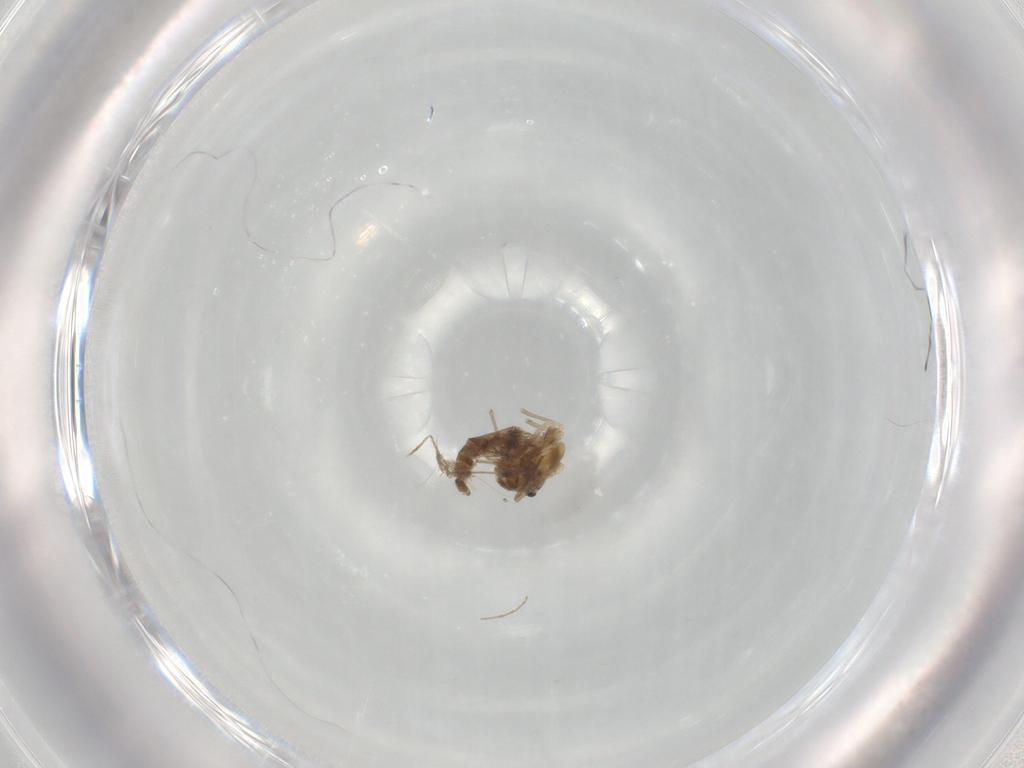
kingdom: Animalia
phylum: Arthropoda
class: Insecta
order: Diptera
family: Chironomidae
